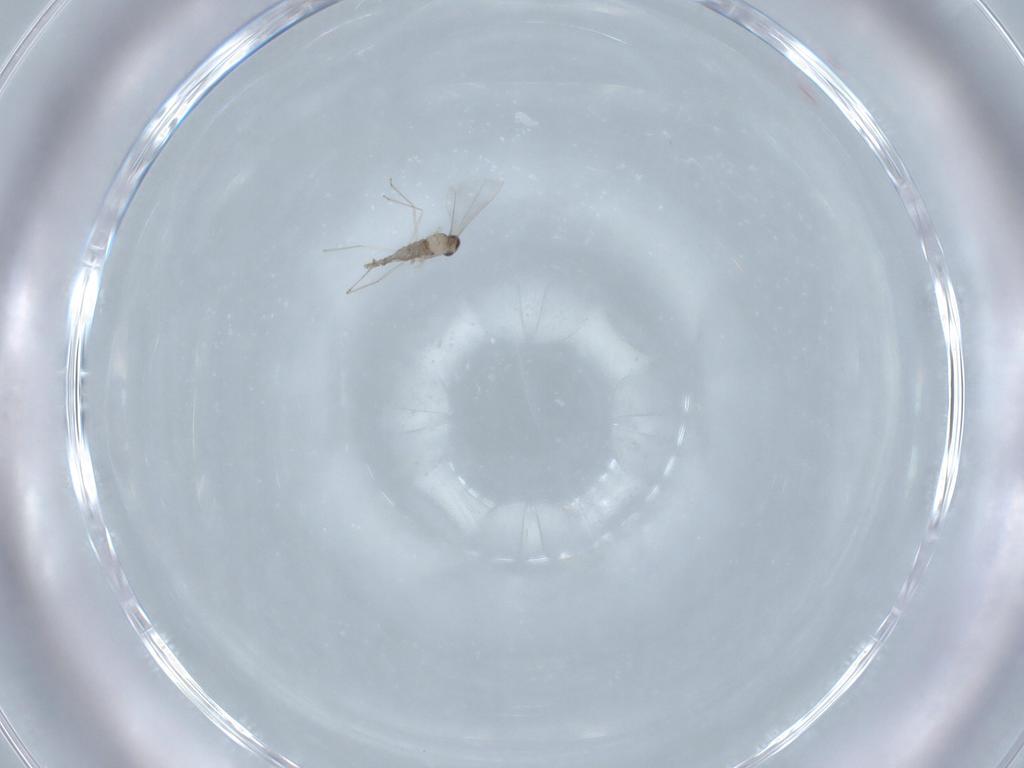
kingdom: Animalia
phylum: Arthropoda
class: Insecta
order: Diptera
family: Cecidomyiidae
